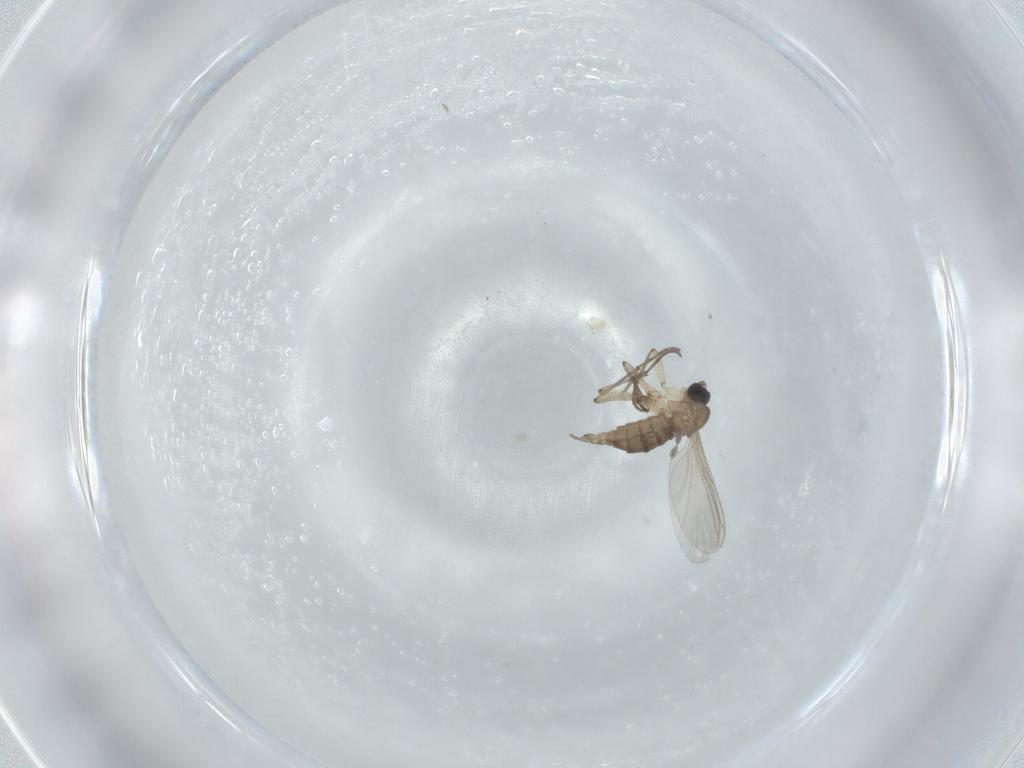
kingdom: Animalia
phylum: Arthropoda
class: Insecta
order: Diptera
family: Sciaridae
